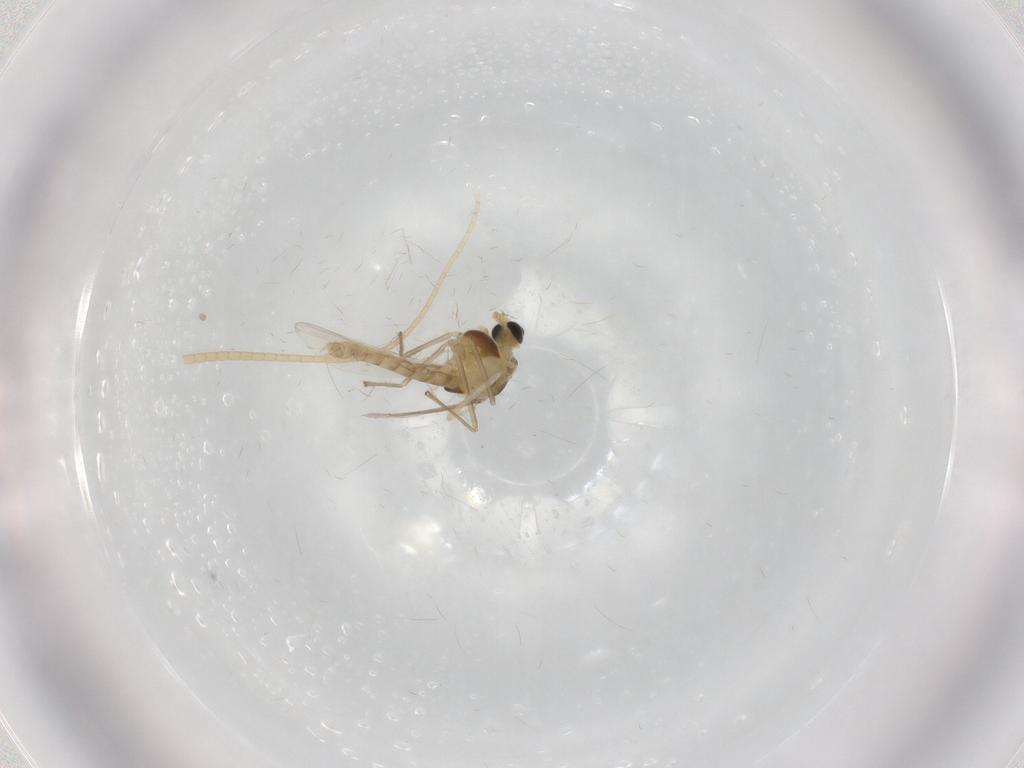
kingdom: Animalia
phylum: Arthropoda
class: Insecta
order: Diptera
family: Chironomidae
